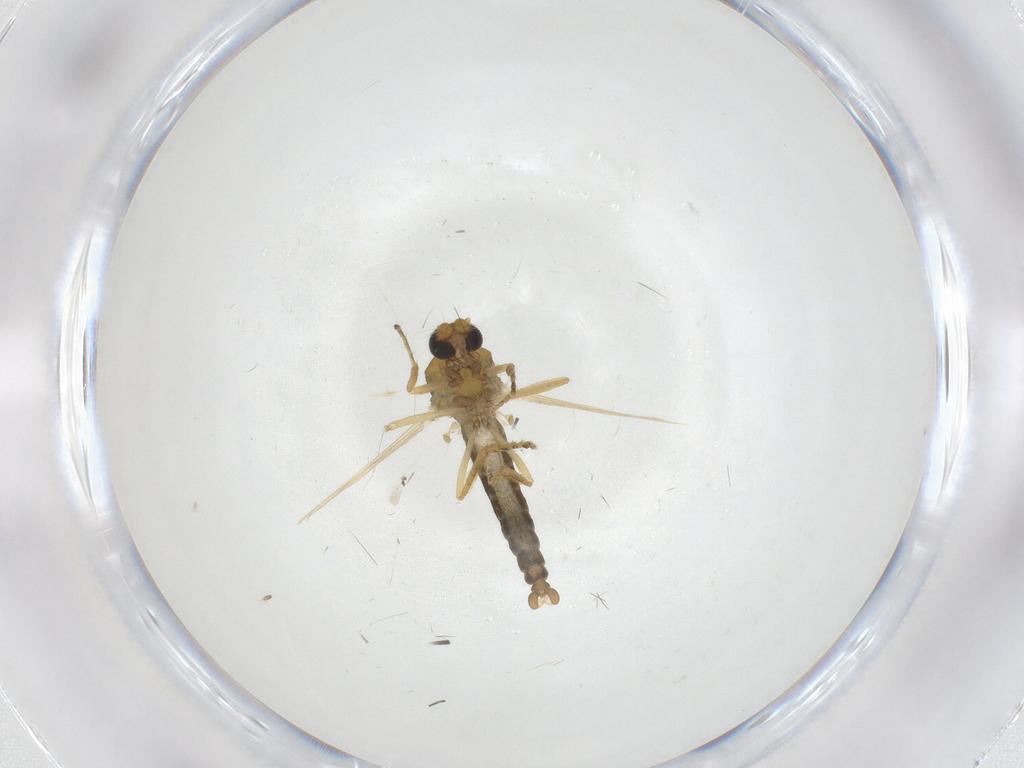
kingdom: Animalia
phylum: Arthropoda
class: Insecta
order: Diptera
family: Ceratopogonidae
